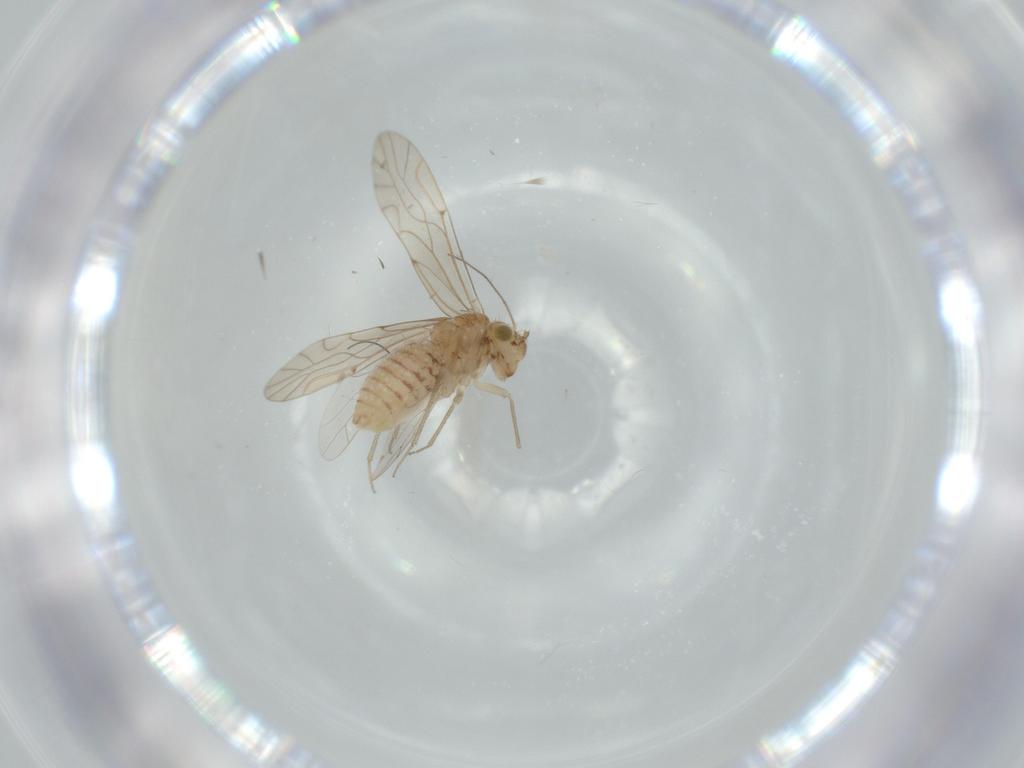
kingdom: Animalia
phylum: Arthropoda
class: Insecta
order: Psocodea
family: Lachesillidae
